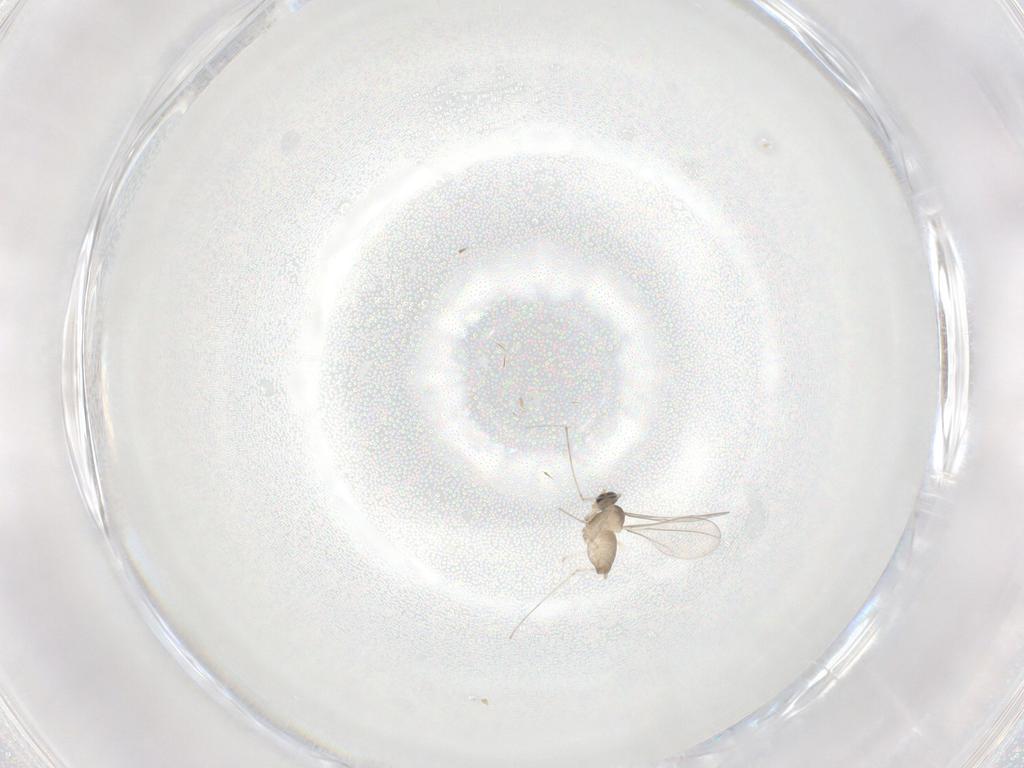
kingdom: Animalia
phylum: Arthropoda
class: Insecta
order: Diptera
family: Cecidomyiidae
